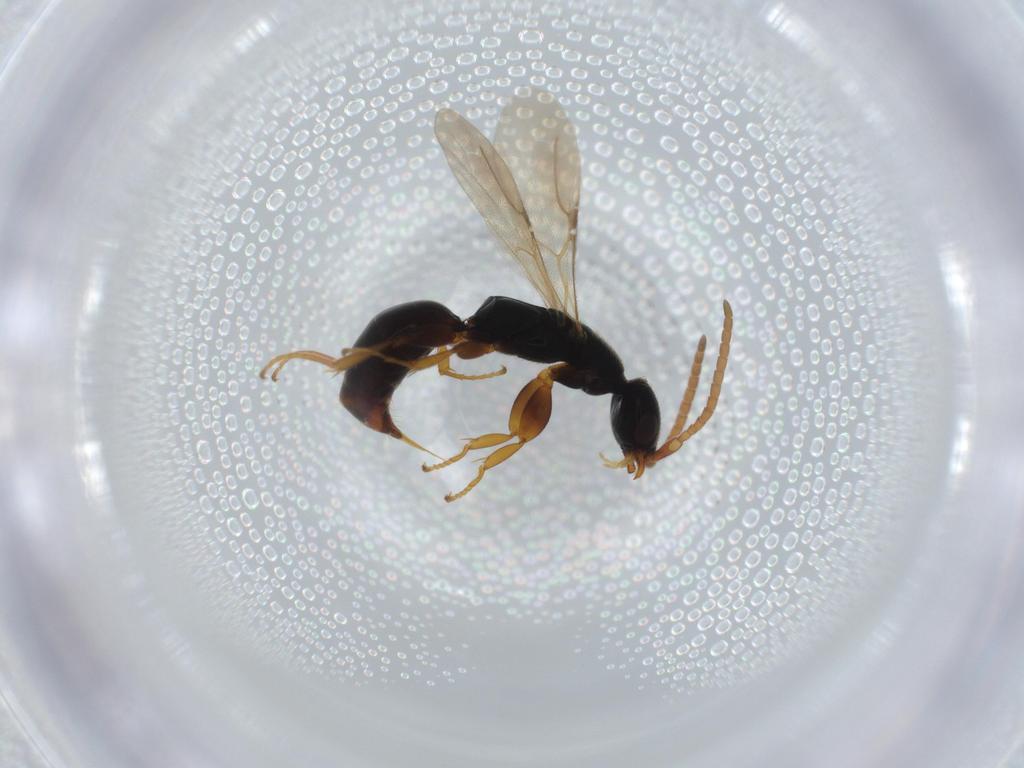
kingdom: Animalia
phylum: Arthropoda
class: Insecta
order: Hymenoptera
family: Bethylidae
